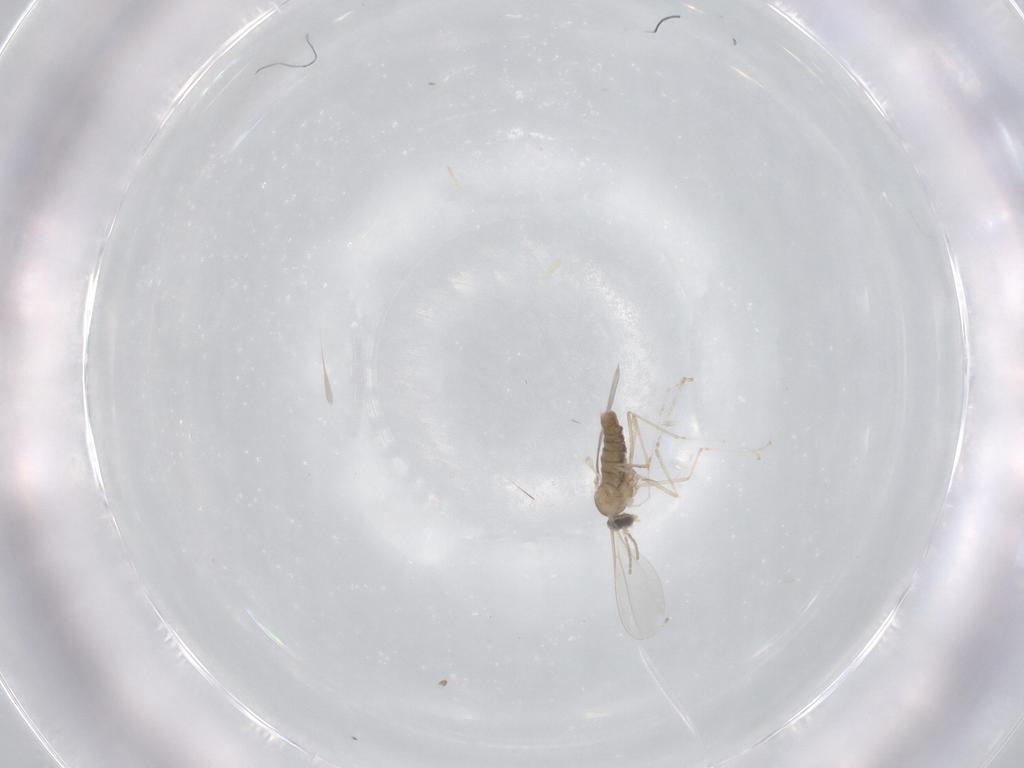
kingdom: Animalia
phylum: Arthropoda
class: Insecta
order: Diptera
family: Cecidomyiidae
